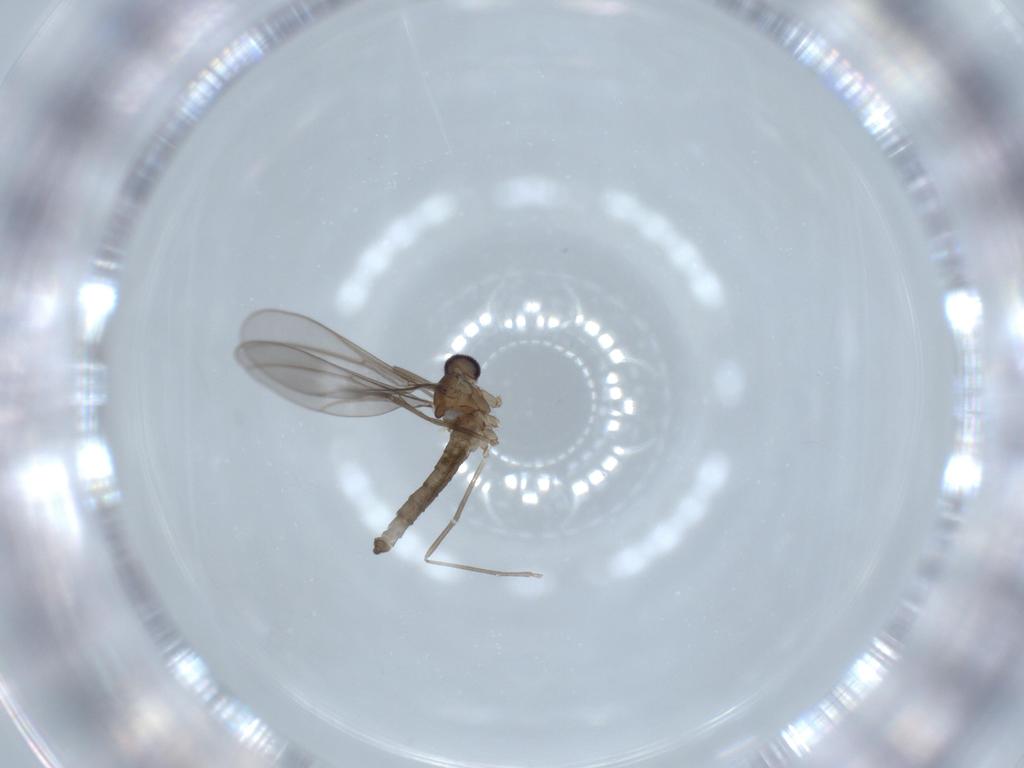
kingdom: Animalia
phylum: Arthropoda
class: Insecta
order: Diptera
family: Cecidomyiidae
